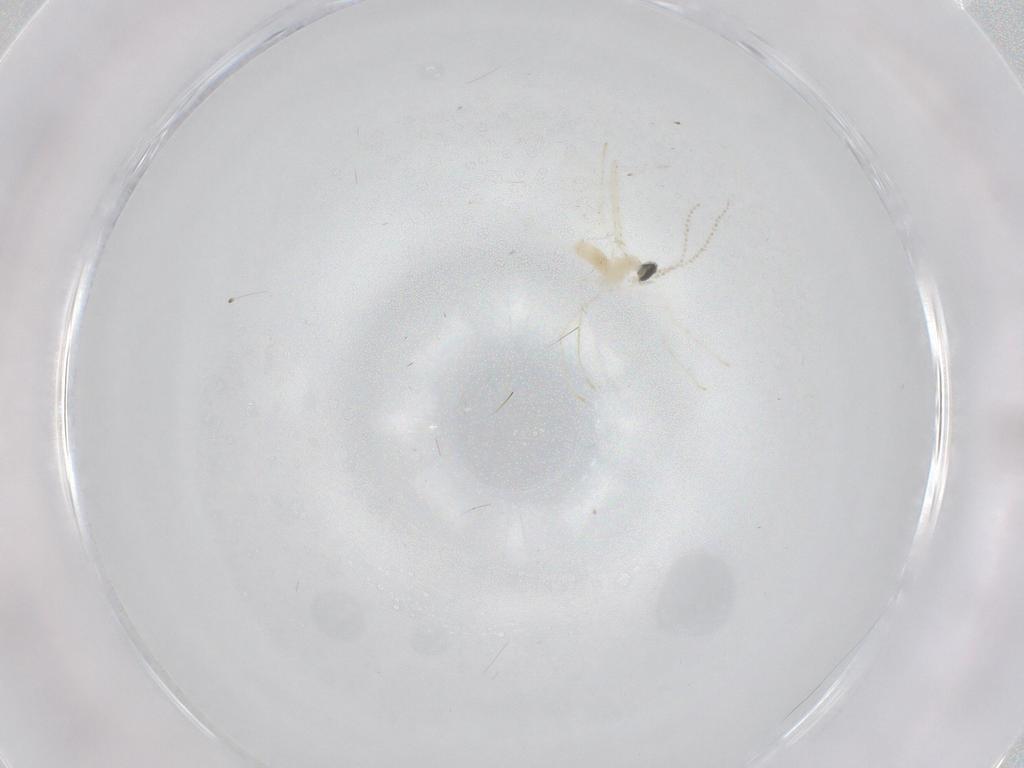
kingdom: Animalia
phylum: Arthropoda
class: Insecta
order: Diptera
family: Cecidomyiidae
